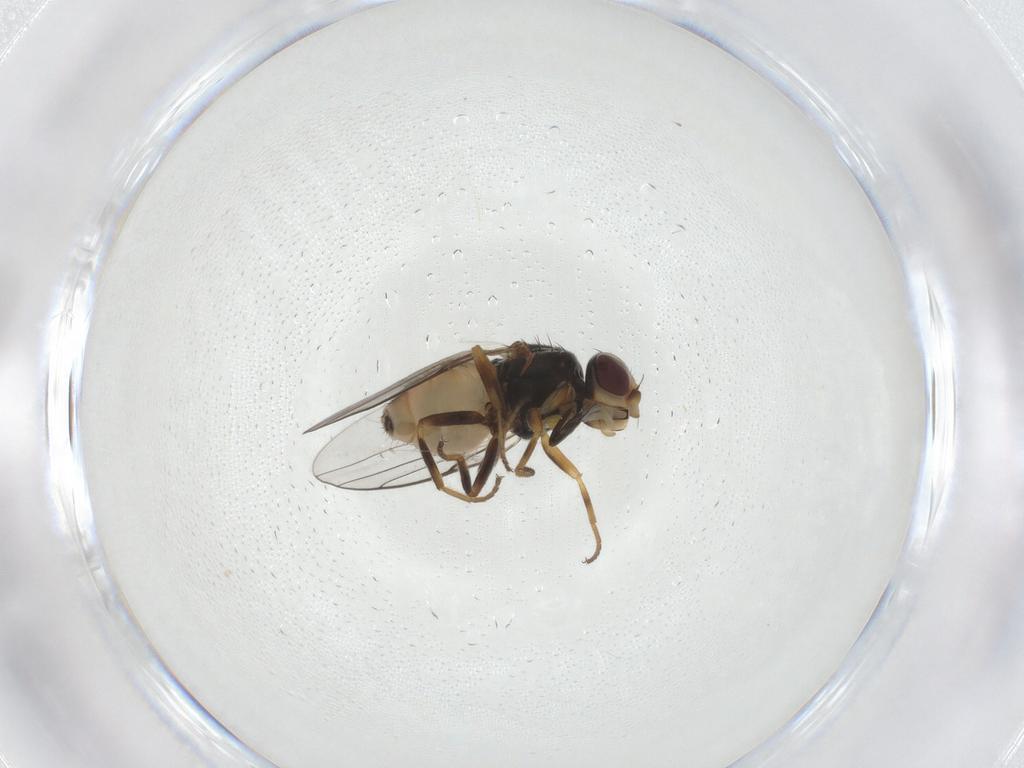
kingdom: Animalia
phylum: Arthropoda
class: Insecta
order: Diptera
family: Chloropidae
